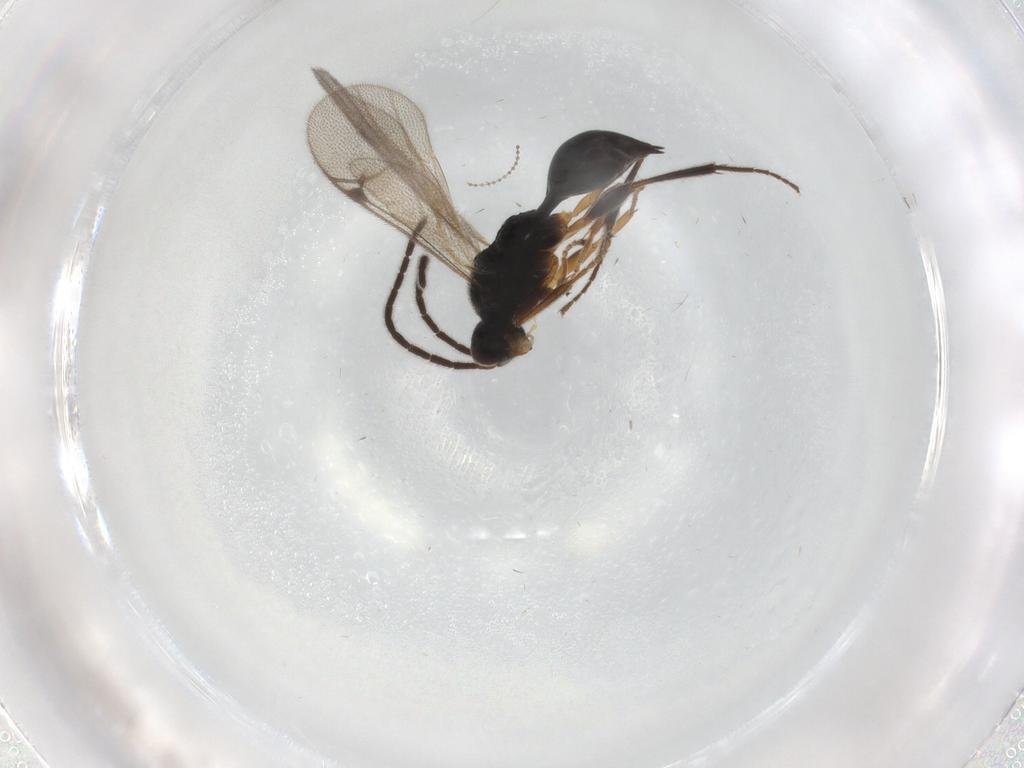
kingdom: Animalia
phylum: Arthropoda
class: Insecta
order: Hymenoptera
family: Proctotrupidae
